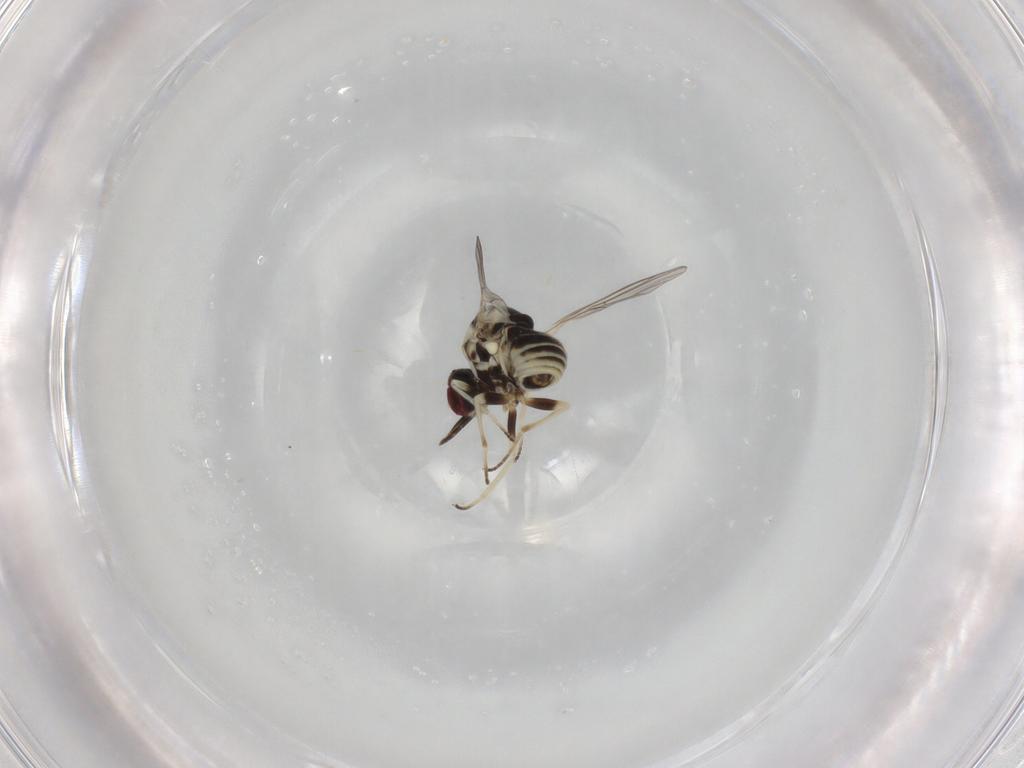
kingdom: Animalia
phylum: Arthropoda
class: Insecta
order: Diptera
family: Bombyliidae
